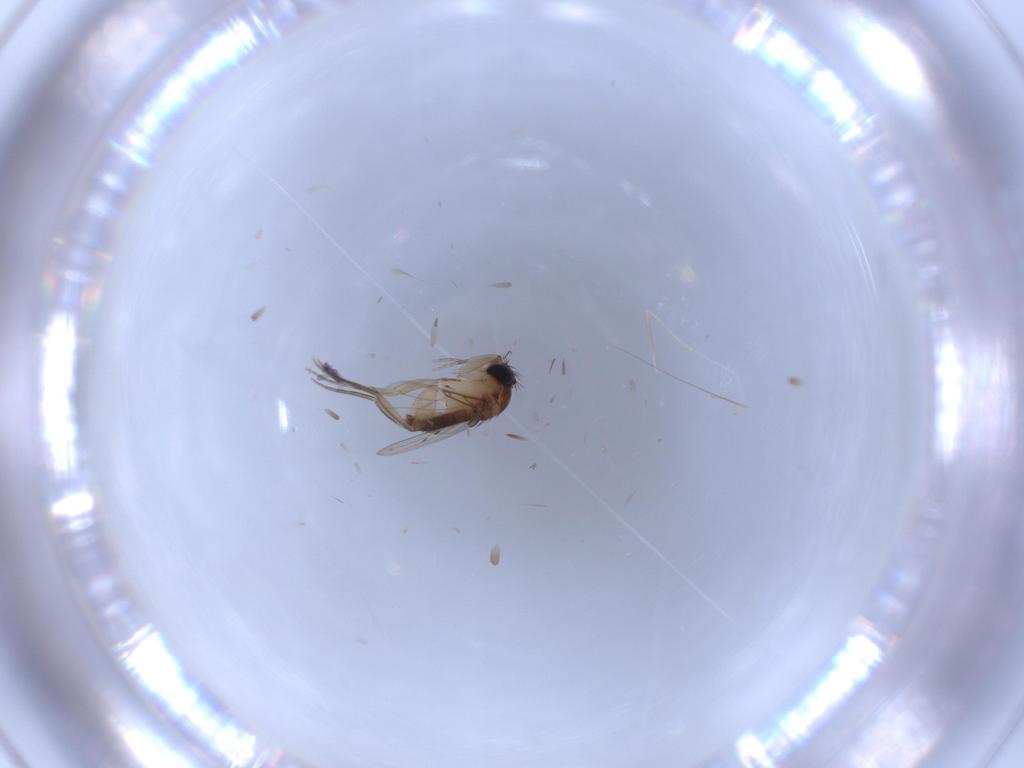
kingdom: Animalia
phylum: Arthropoda
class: Insecta
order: Diptera
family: Phoridae
